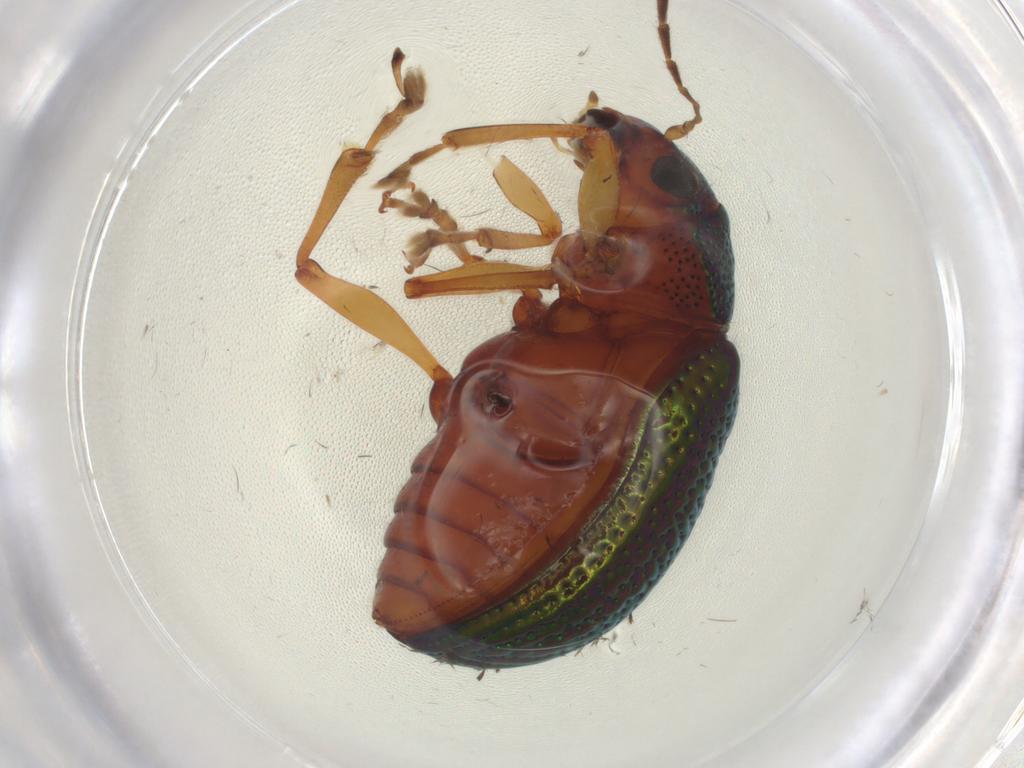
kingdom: Animalia
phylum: Arthropoda
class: Insecta
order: Coleoptera
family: Chrysomelidae
